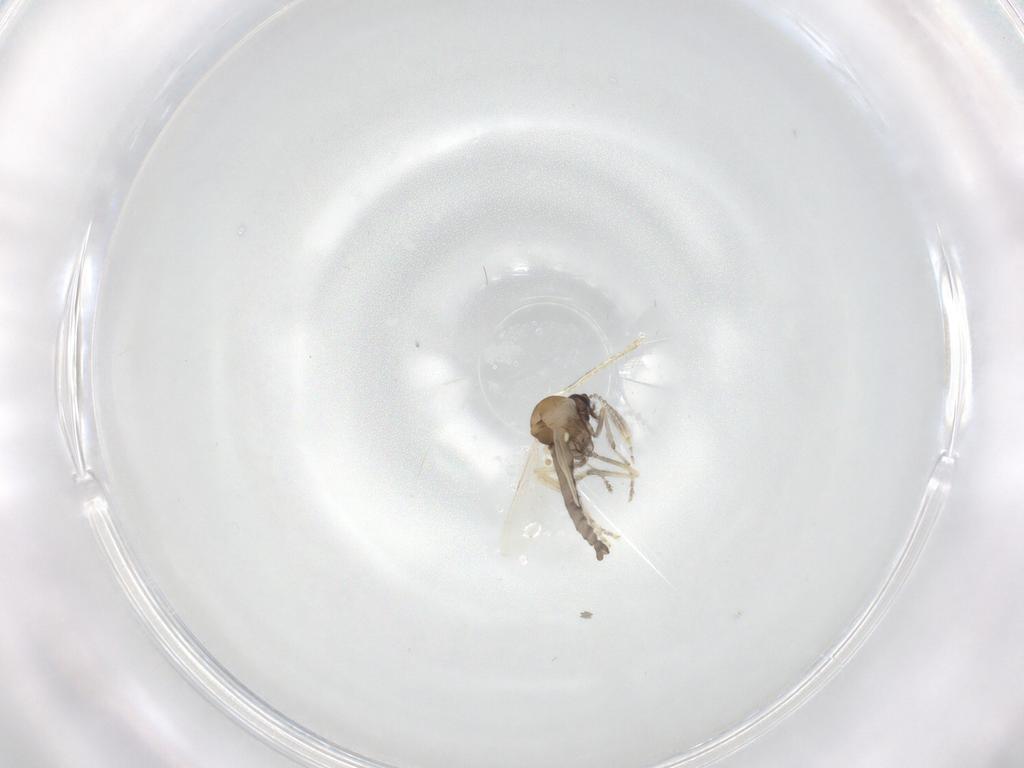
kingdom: Animalia
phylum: Arthropoda
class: Insecta
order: Diptera
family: Ceratopogonidae
